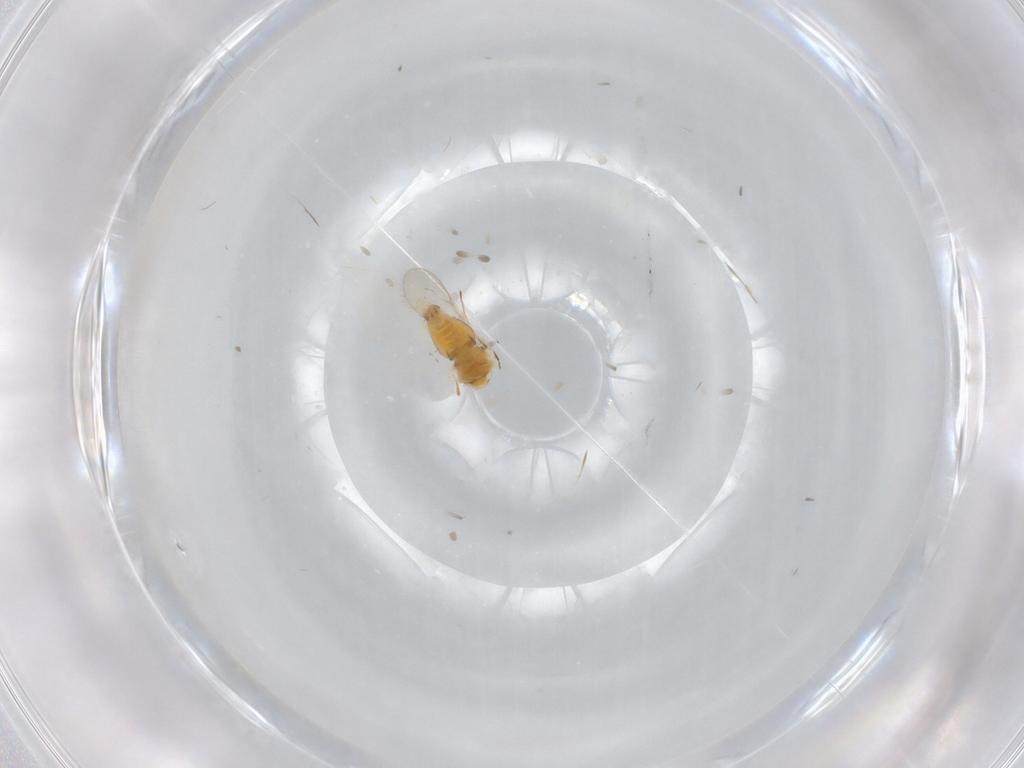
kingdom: Animalia
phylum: Arthropoda
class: Insecta
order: Hemiptera
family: Aleyrodidae
